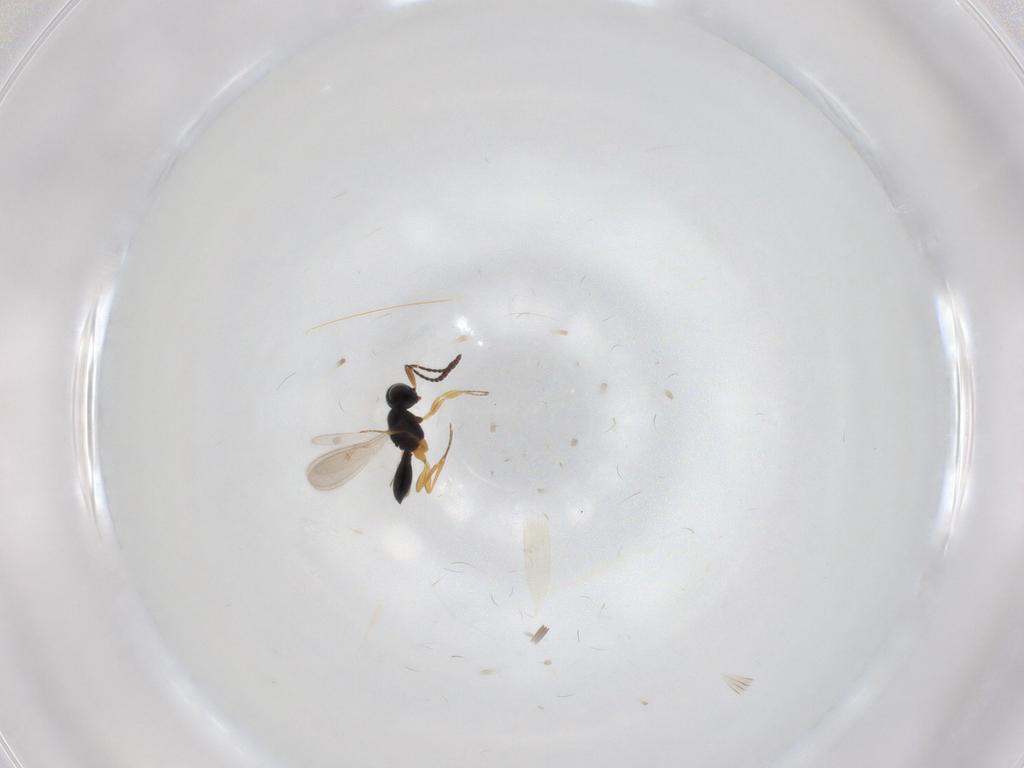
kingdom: Animalia
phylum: Arthropoda
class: Insecta
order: Hymenoptera
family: Scelionidae
